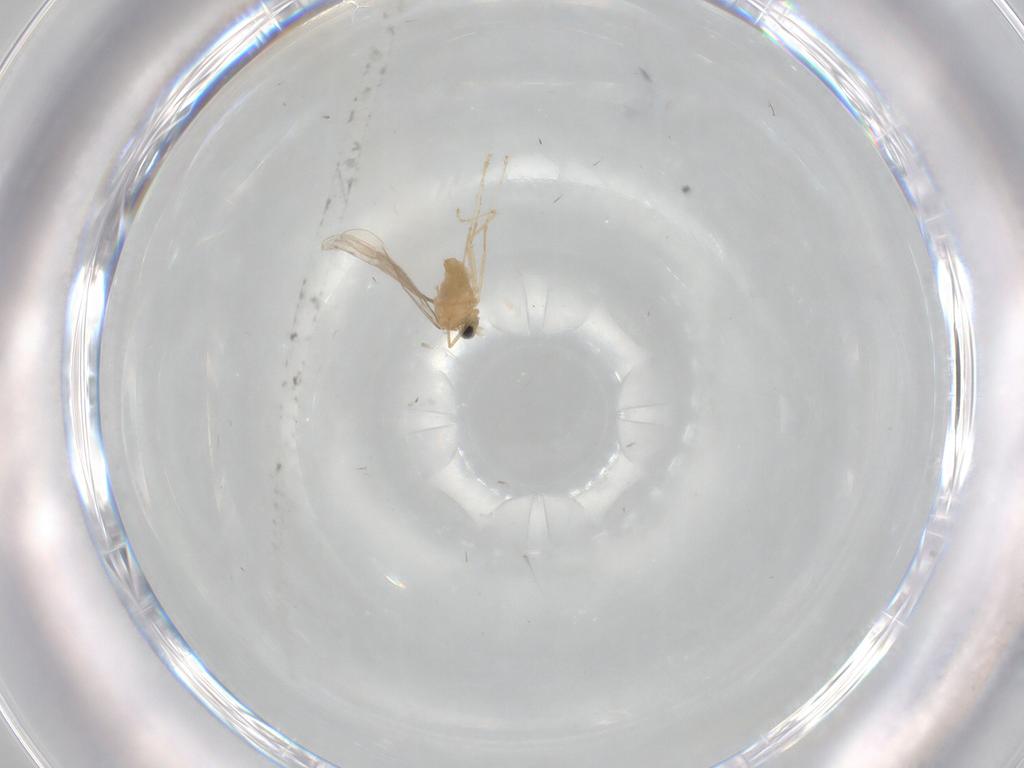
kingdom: Animalia
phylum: Arthropoda
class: Insecta
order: Diptera
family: Cecidomyiidae
